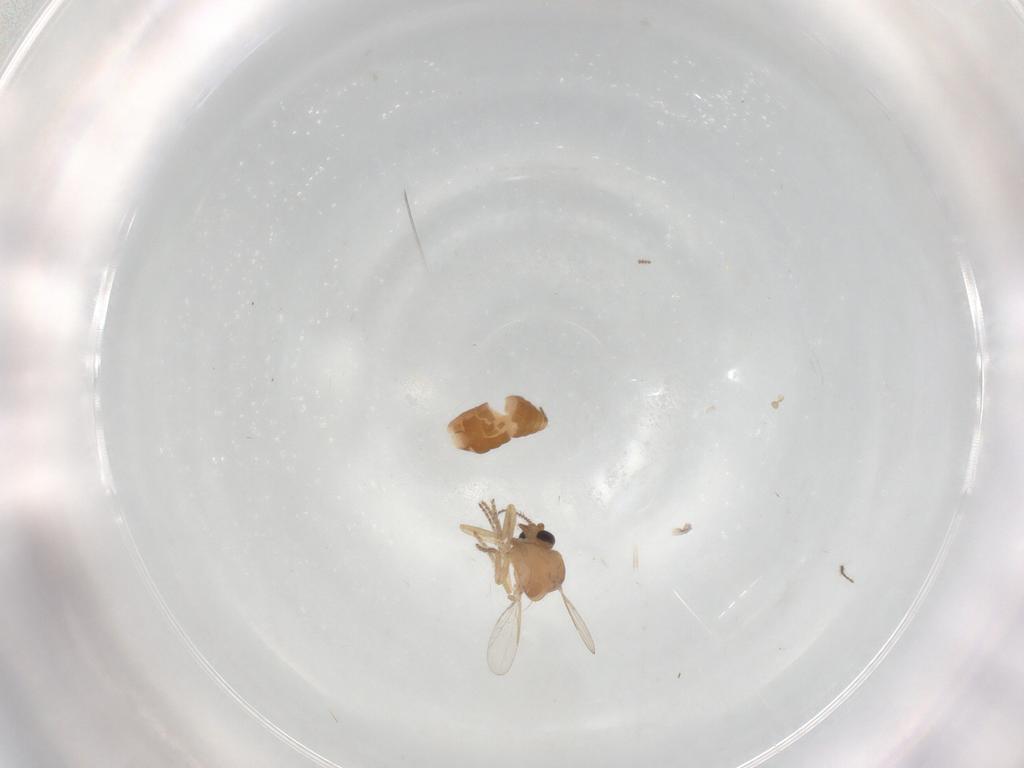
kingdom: Animalia
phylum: Arthropoda
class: Insecta
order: Diptera
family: Ceratopogonidae
